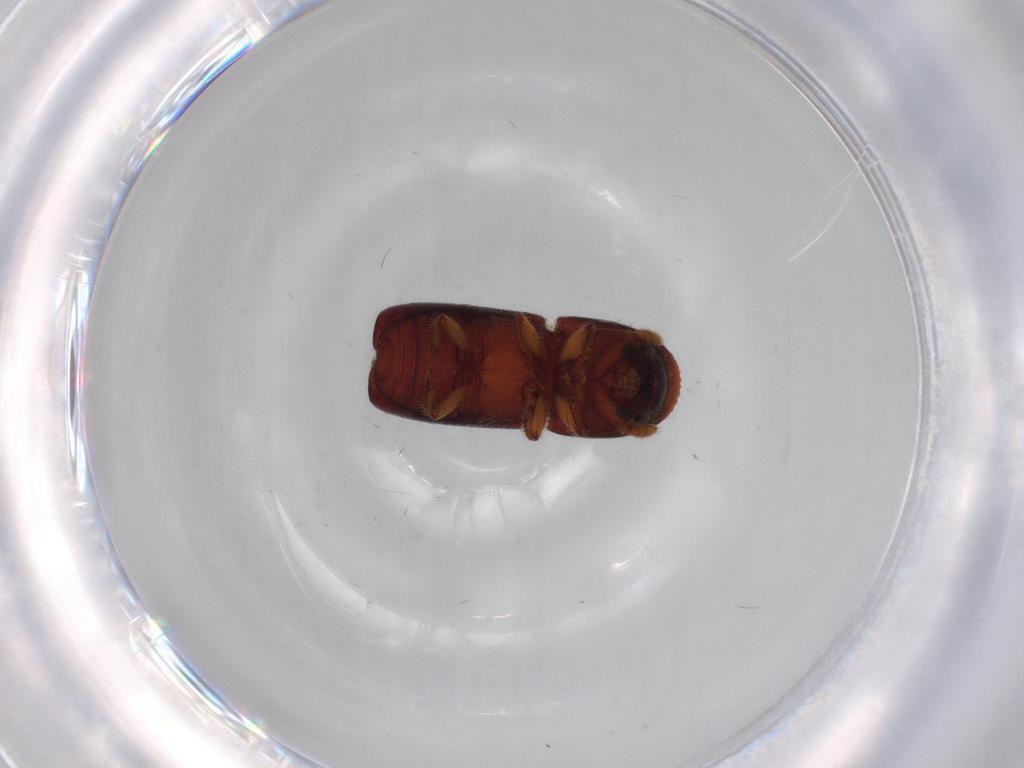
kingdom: Animalia
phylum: Arthropoda
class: Insecta
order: Coleoptera
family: Curculionidae
